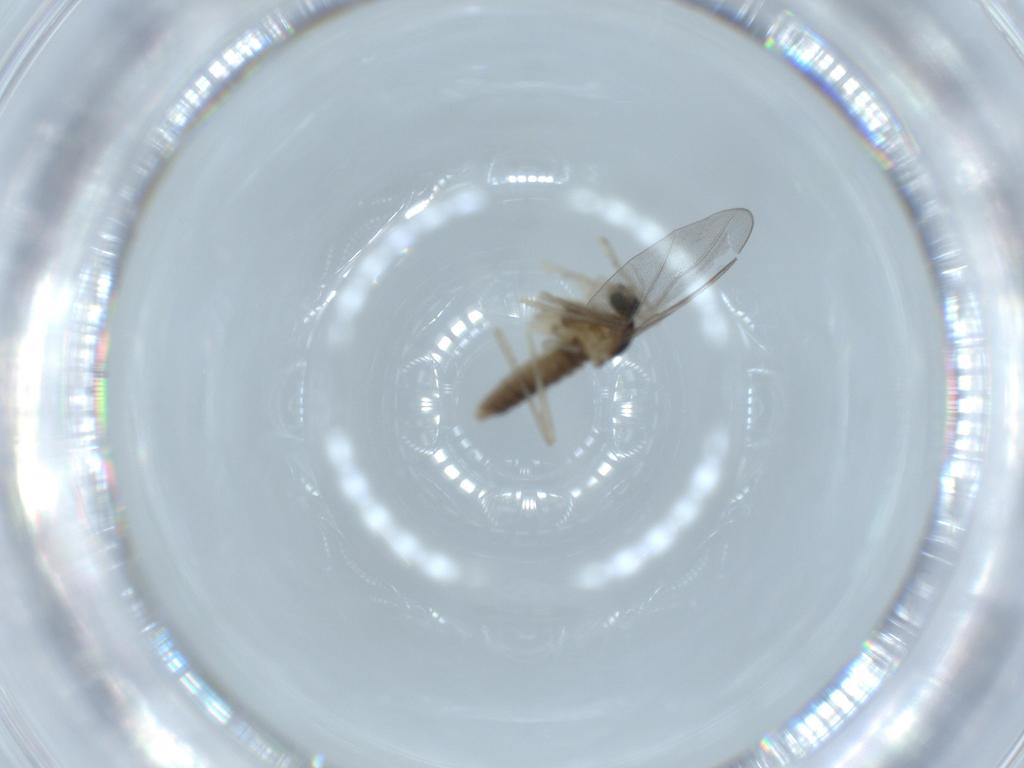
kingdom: Animalia
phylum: Arthropoda
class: Insecta
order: Diptera
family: Cecidomyiidae
